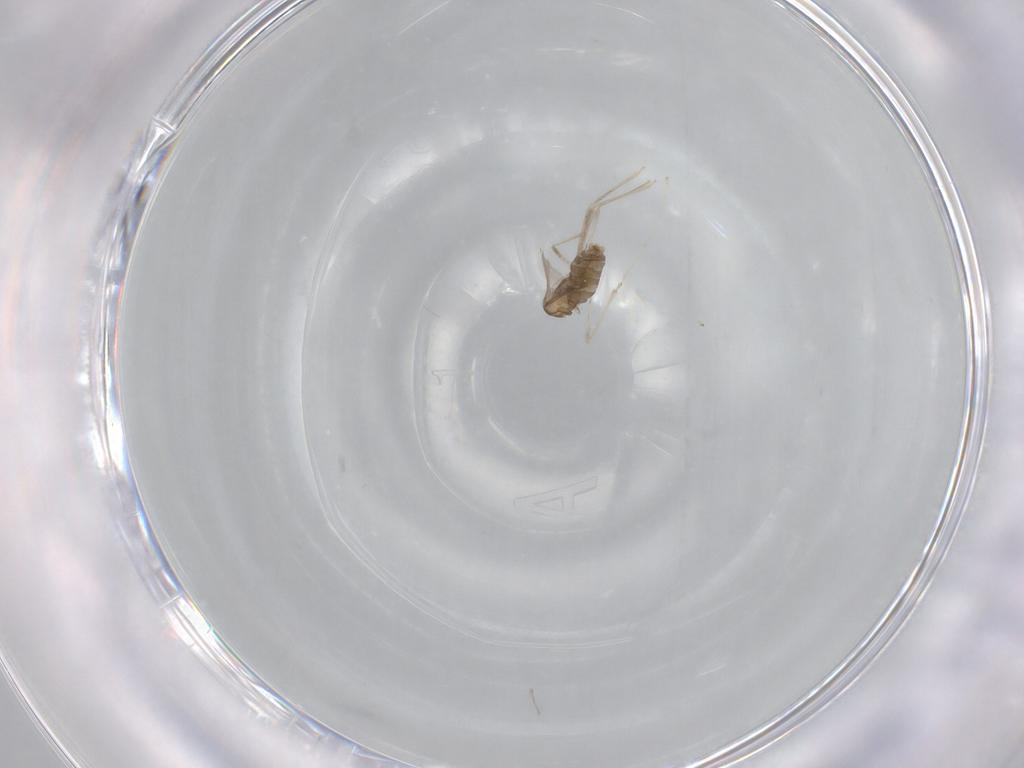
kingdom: Animalia
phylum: Arthropoda
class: Insecta
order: Diptera
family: Cecidomyiidae
